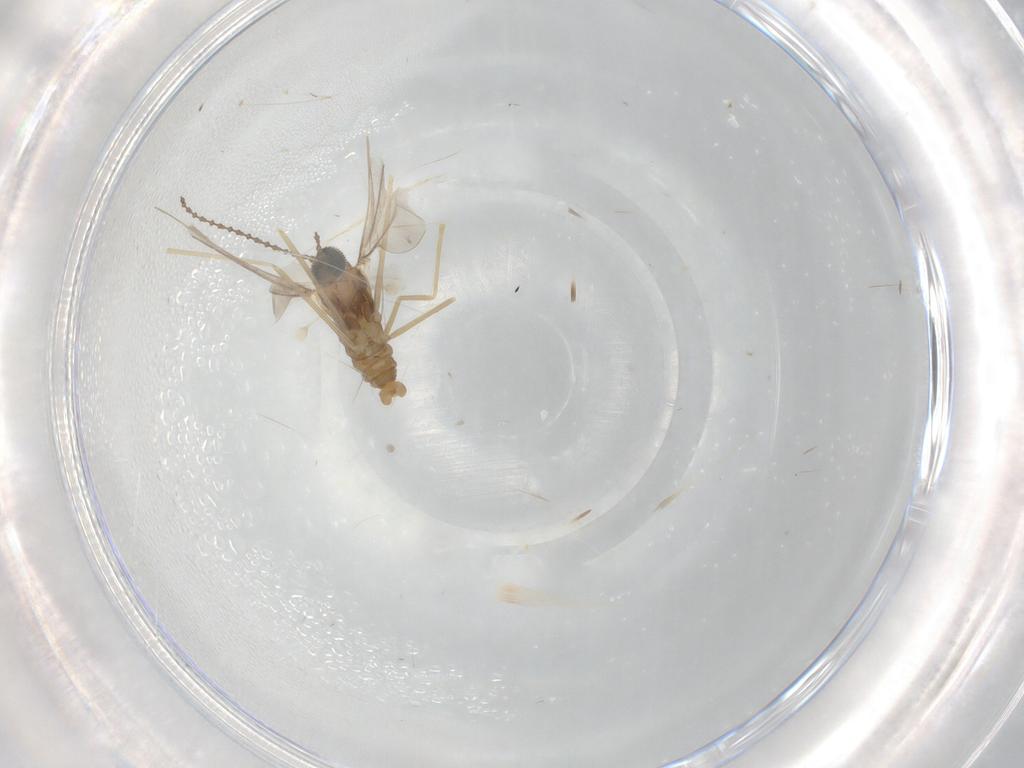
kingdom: Animalia
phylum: Arthropoda
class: Insecta
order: Diptera
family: Cecidomyiidae
